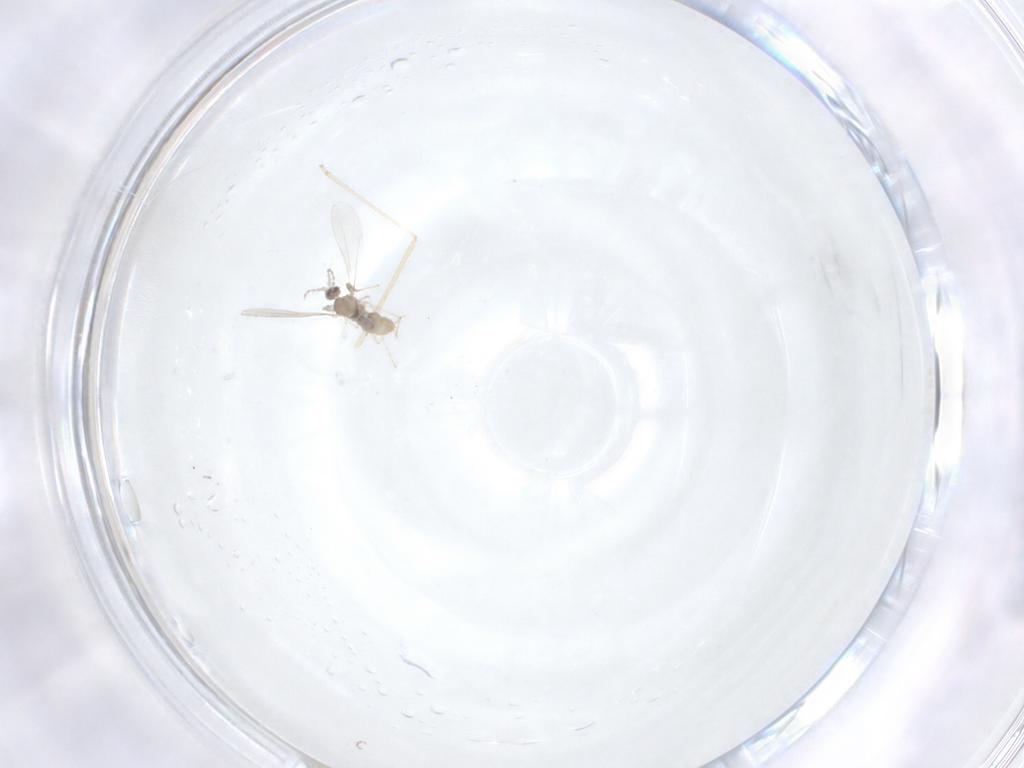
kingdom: Animalia
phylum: Arthropoda
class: Insecta
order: Diptera
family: Cecidomyiidae
